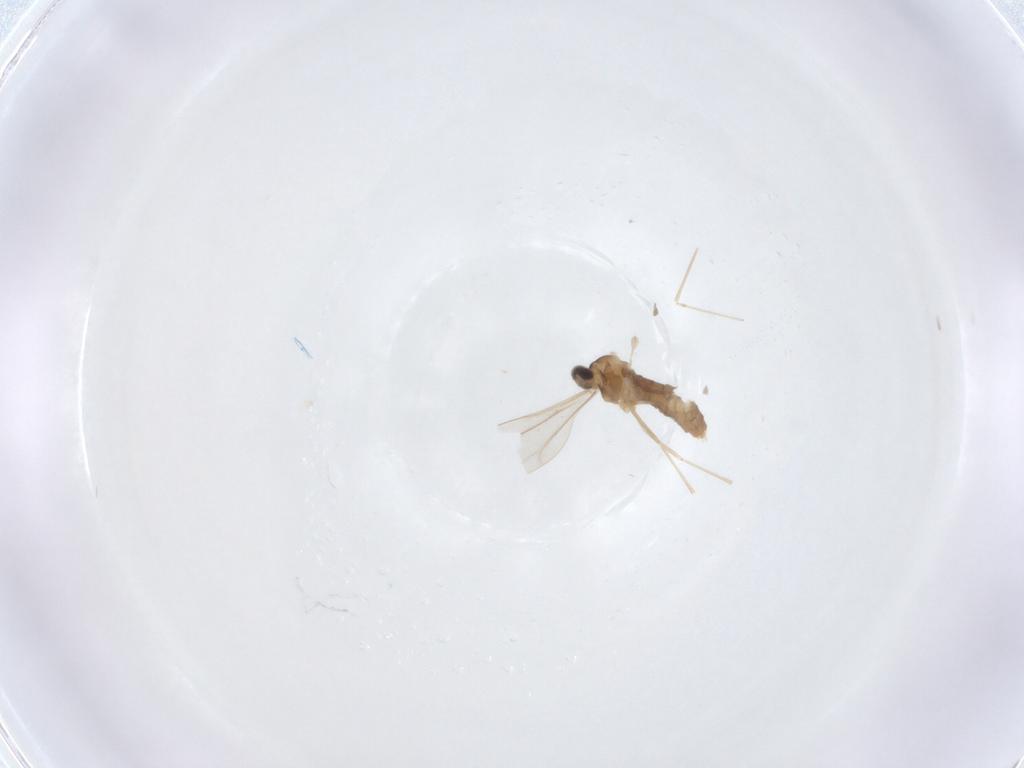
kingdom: Animalia
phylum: Arthropoda
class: Insecta
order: Diptera
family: Cecidomyiidae
